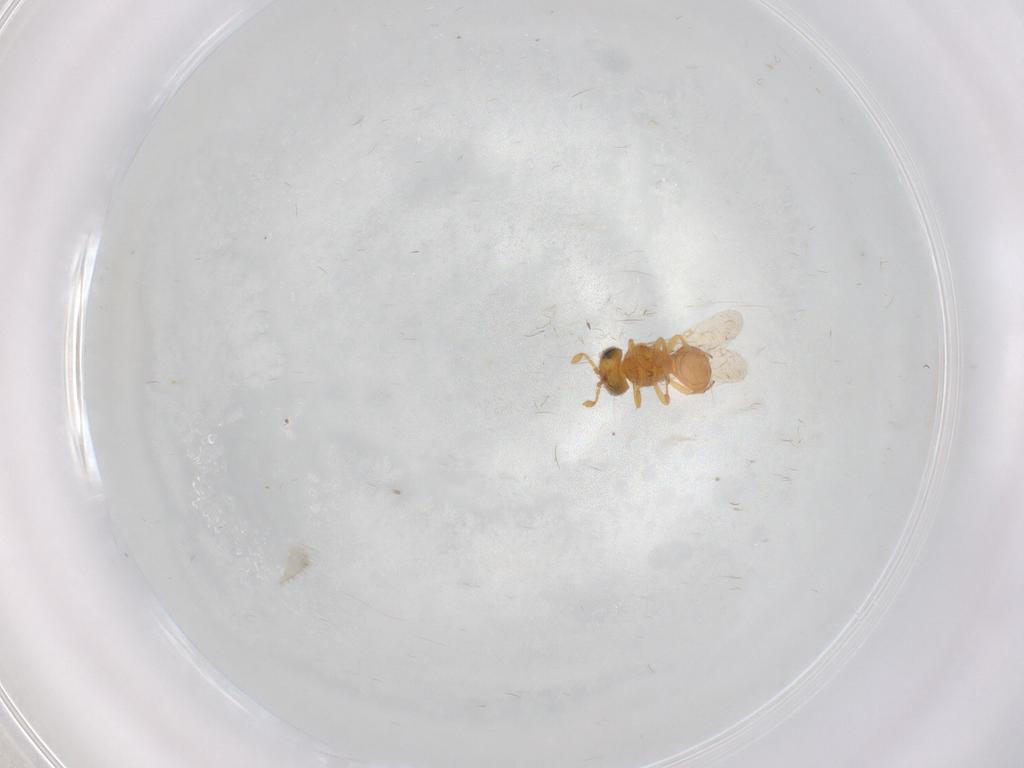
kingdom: Animalia
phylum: Arthropoda
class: Insecta
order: Hymenoptera
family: Scelionidae
